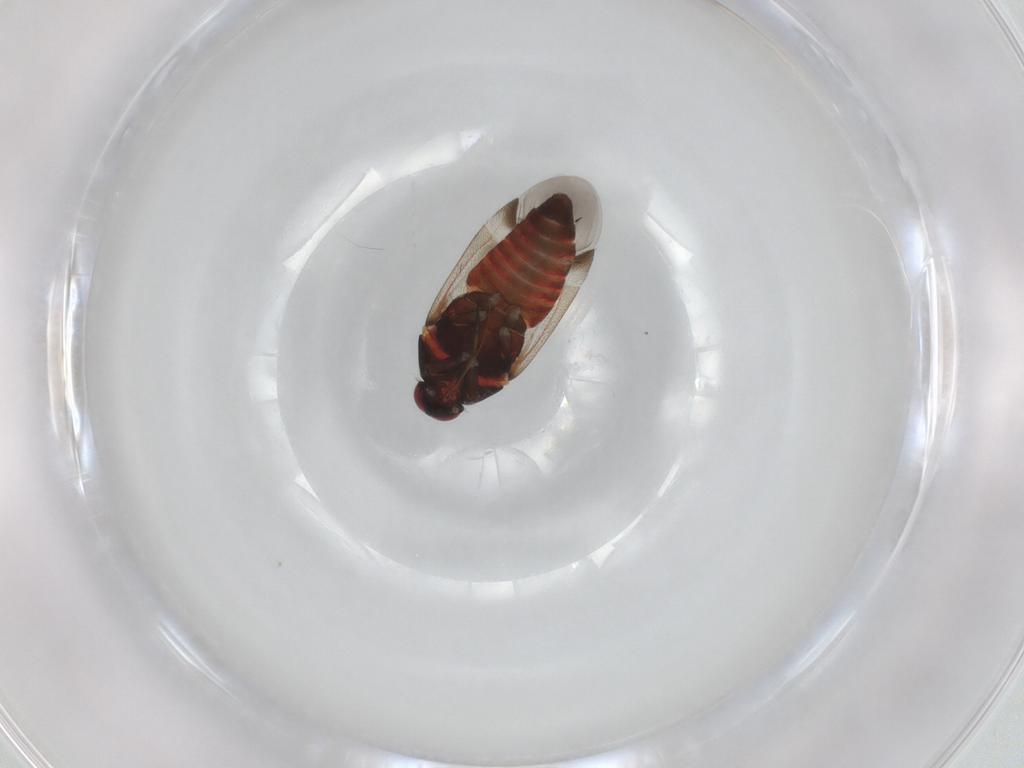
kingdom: Animalia
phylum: Arthropoda
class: Insecta
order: Hemiptera
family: Miridae
